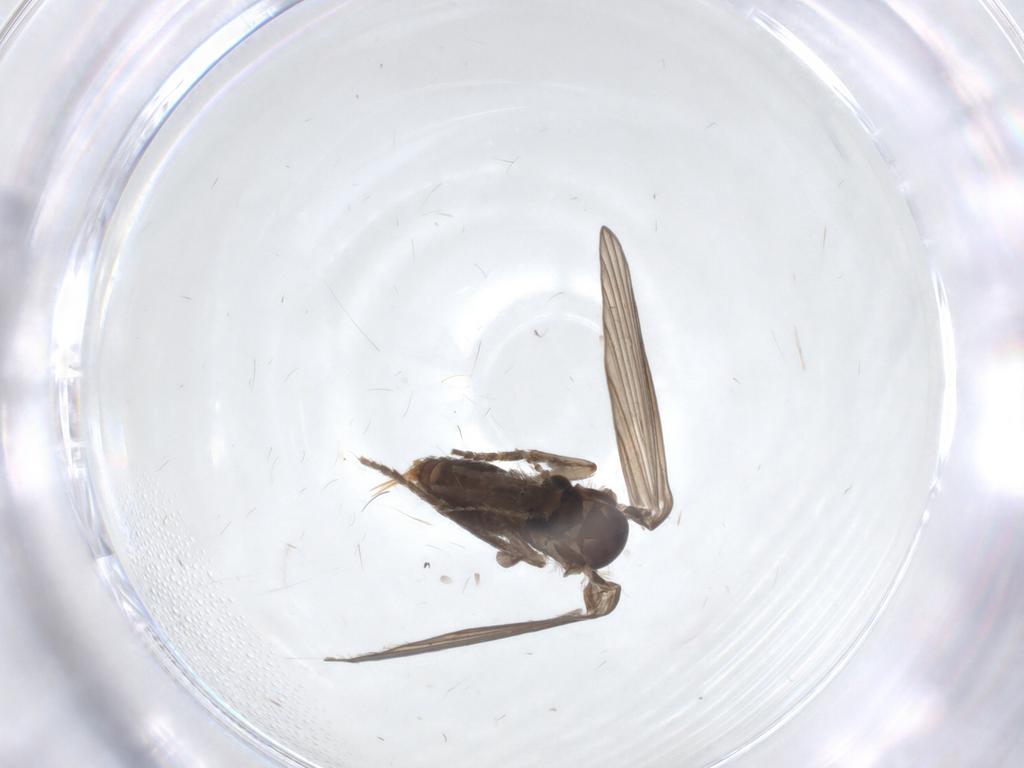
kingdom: Animalia
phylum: Arthropoda
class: Insecta
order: Diptera
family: Psychodidae
